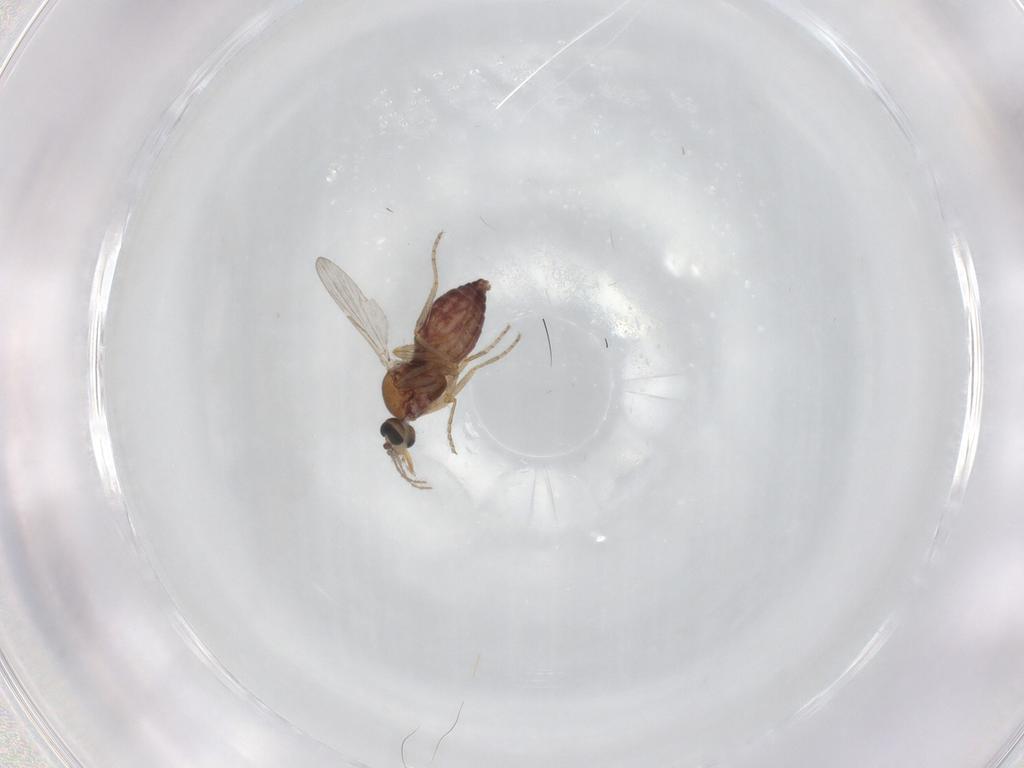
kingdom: Animalia
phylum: Arthropoda
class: Insecta
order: Diptera
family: Ceratopogonidae
